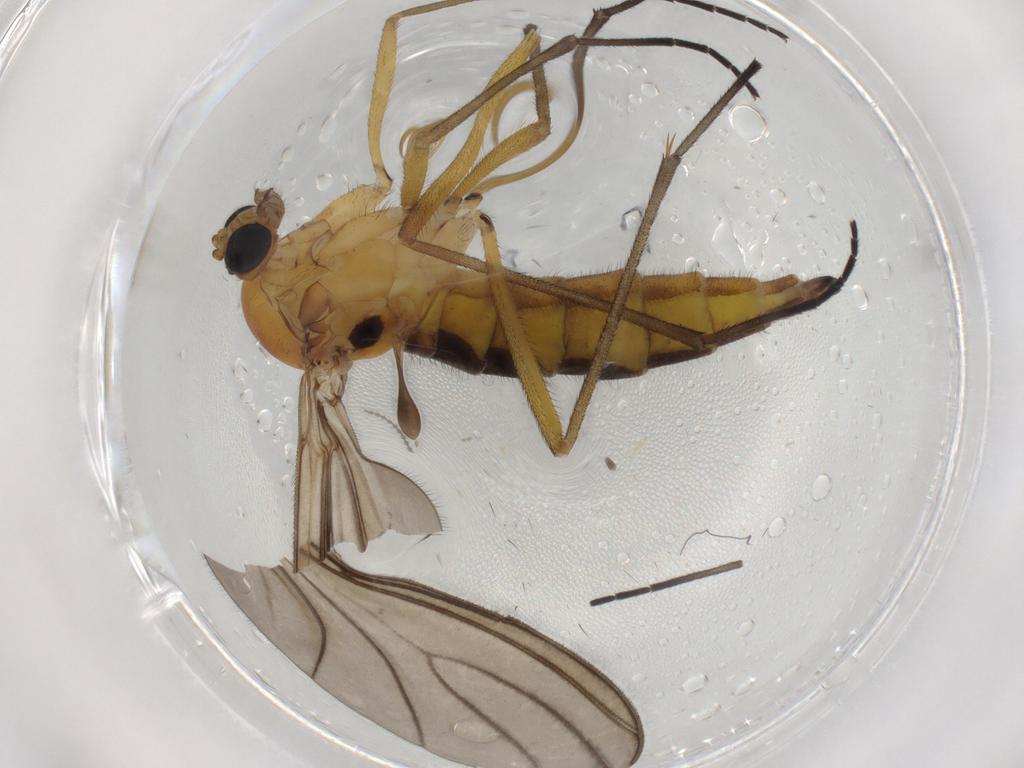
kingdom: Animalia
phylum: Arthropoda
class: Insecta
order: Diptera
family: Sciaridae
